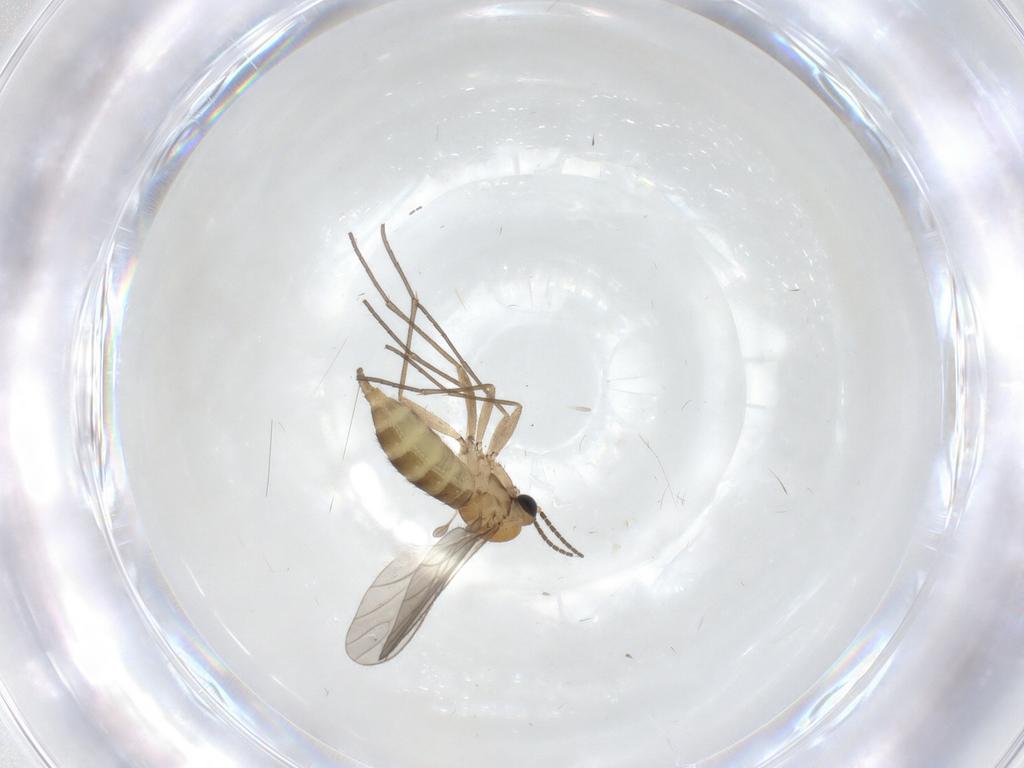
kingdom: Animalia
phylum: Arthropoda
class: Insecta
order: Diptera
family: Sciaridae
